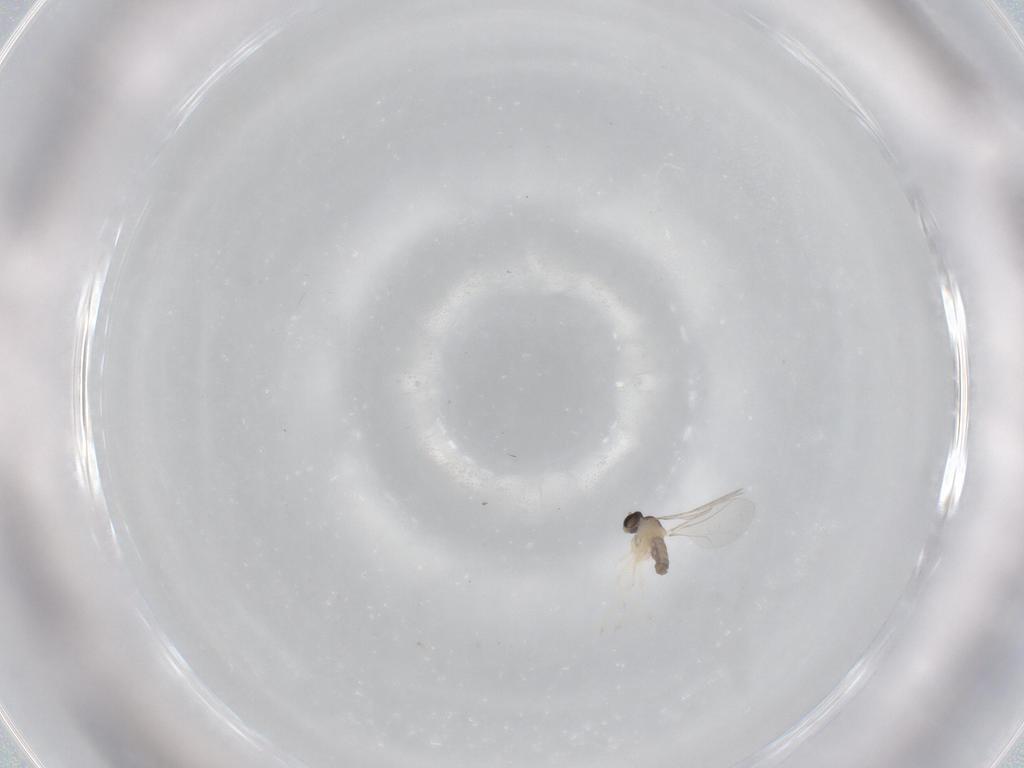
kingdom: Animalia
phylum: Arthropoda
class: Insecta
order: Diptera
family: Cecidomyiidae
